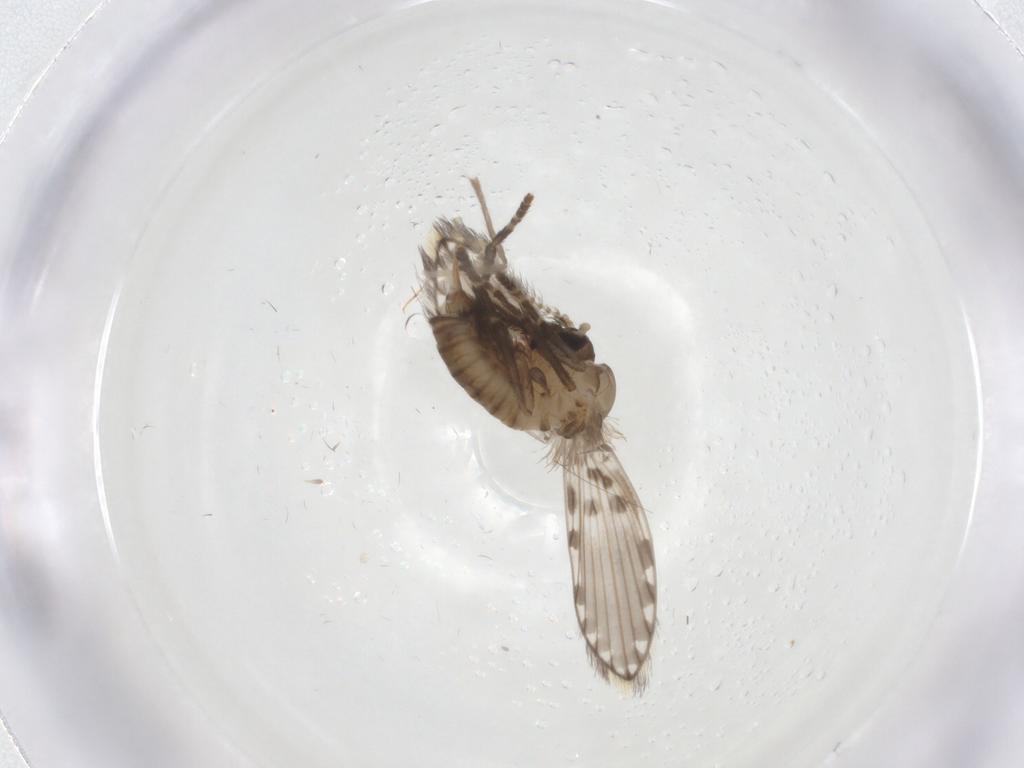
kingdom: Animalia
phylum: Arthropoda
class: Insecta
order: Diptera
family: Psychodidae
